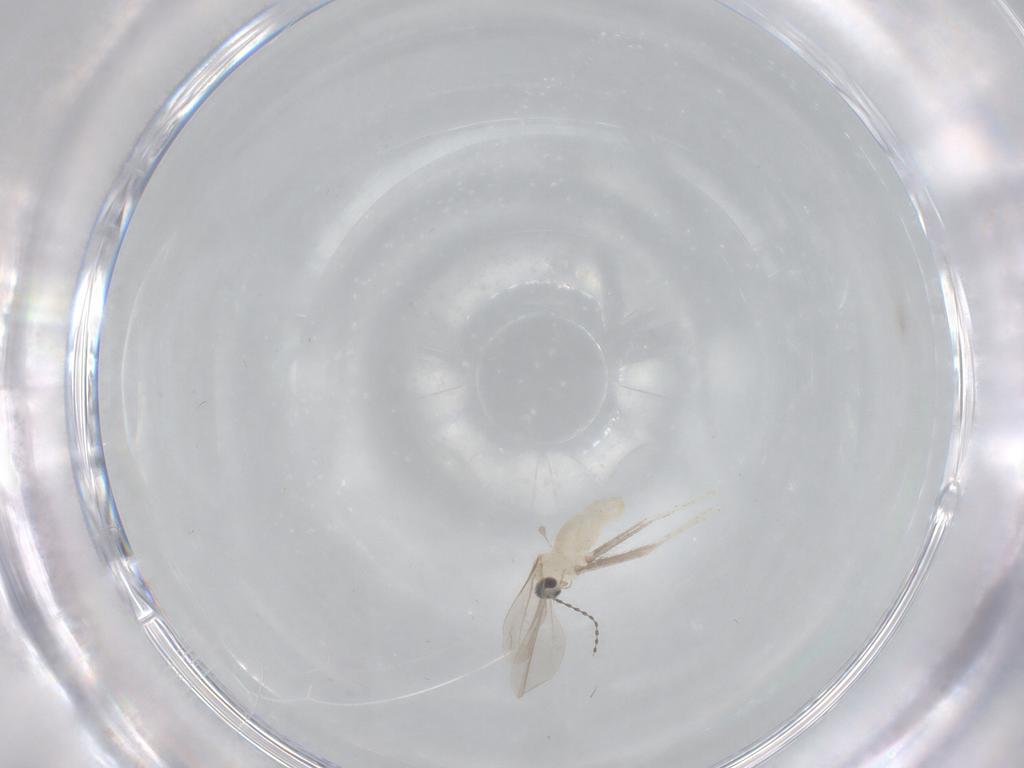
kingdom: Animalia
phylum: Arthropoda
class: Insecta
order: Diptera
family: Cecidomyiidae
